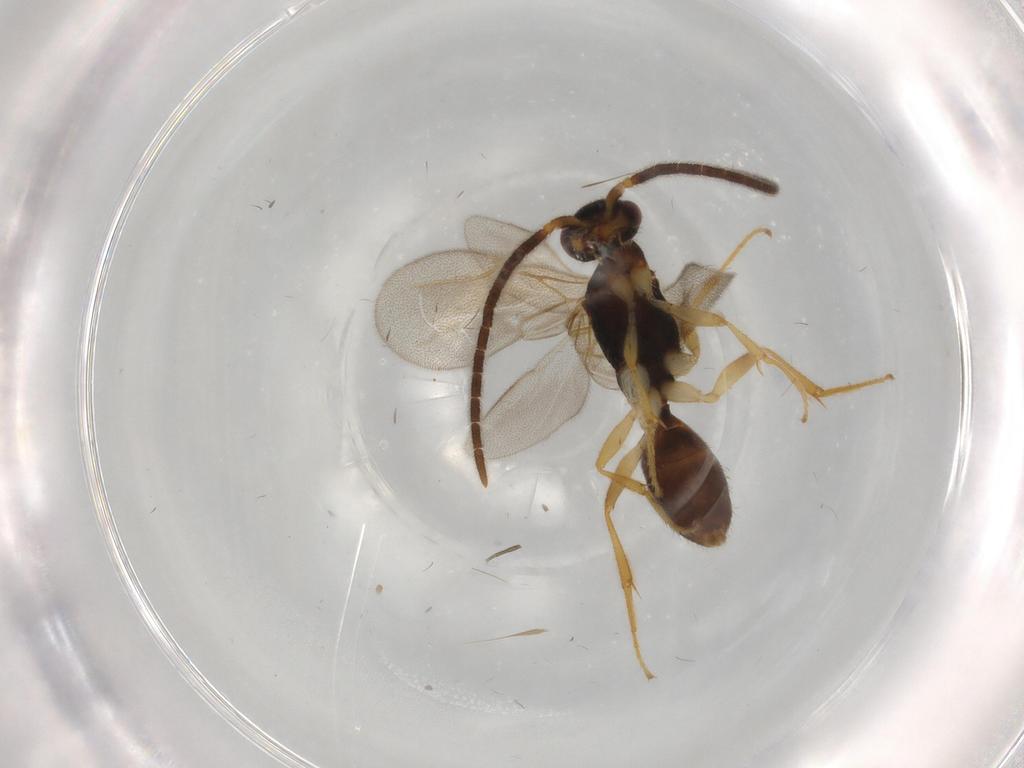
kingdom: Animalia
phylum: Arthropoda
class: Insecta
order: Hymenoptera
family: Bethylidae
